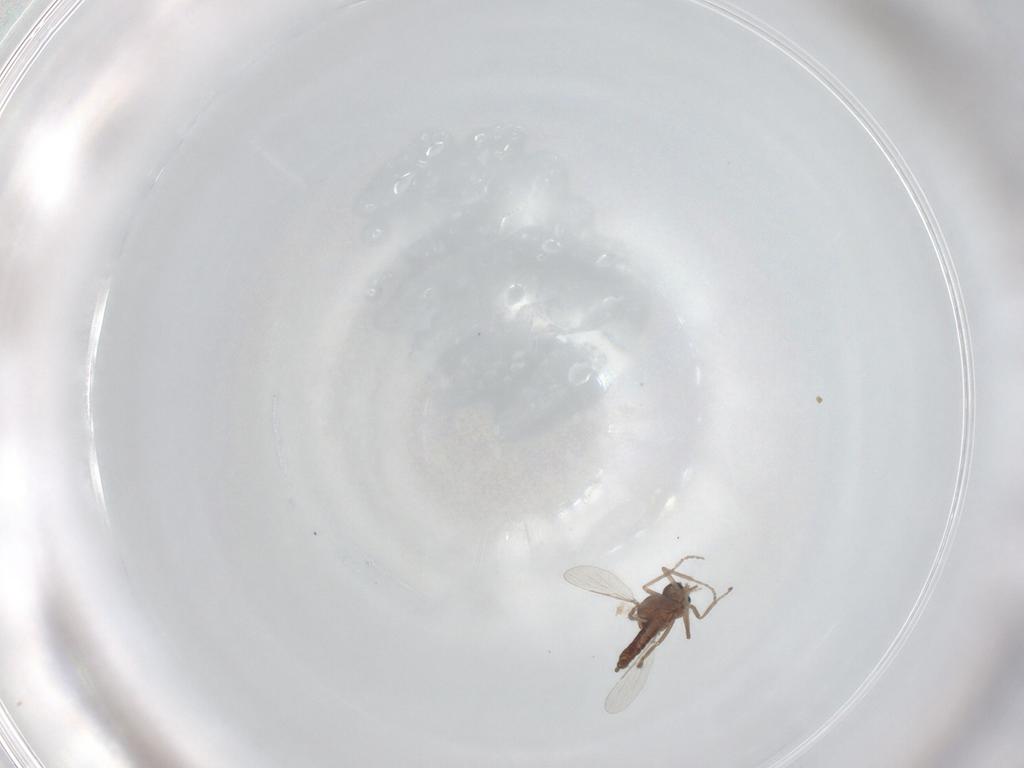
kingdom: Animalia
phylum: Arthropoda
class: Insecta
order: Diptera
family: Ceratopogonidae
